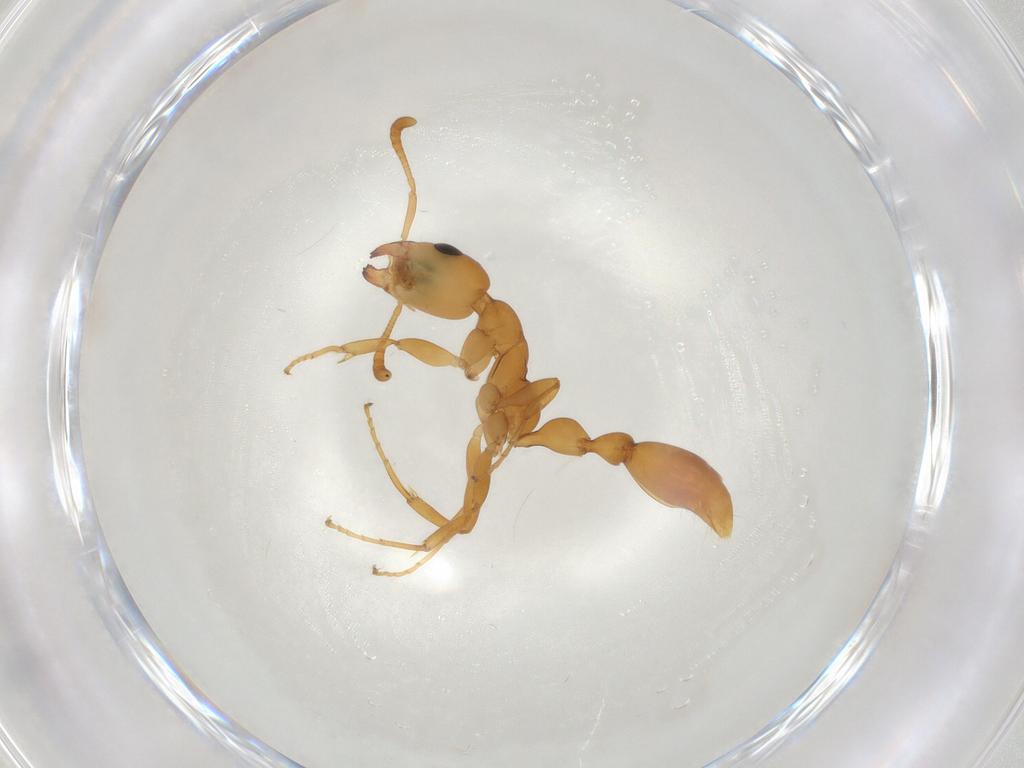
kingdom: Animalia
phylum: Arthropoda
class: Insecta
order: Hymenoptera
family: Formicidae
